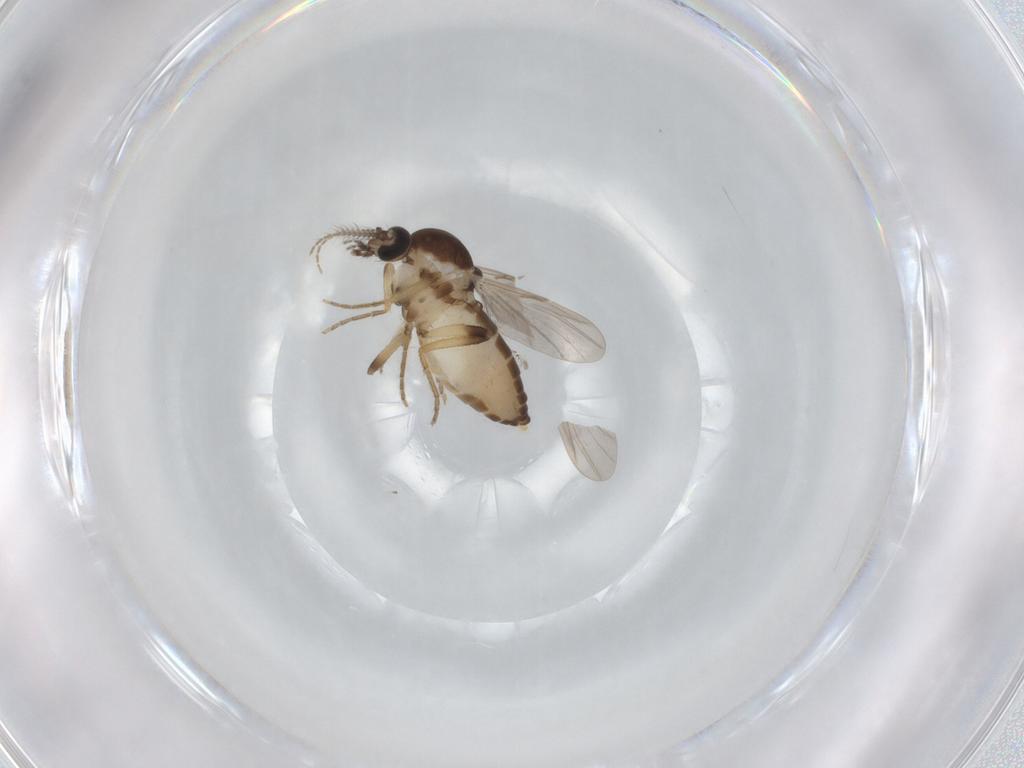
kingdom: Animalia
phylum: Arthropoda
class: Insecta
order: Diptera
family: Ceratopogonidae
